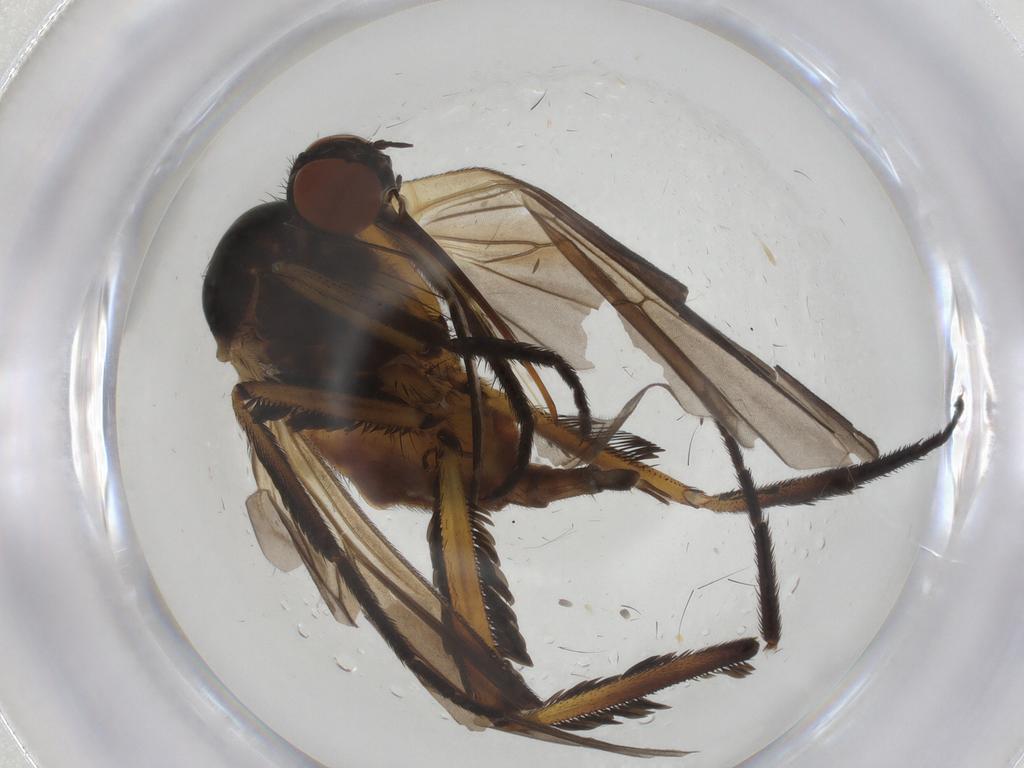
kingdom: Animalia
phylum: Arthropoda
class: Insecta
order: Diptera
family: Empididae
